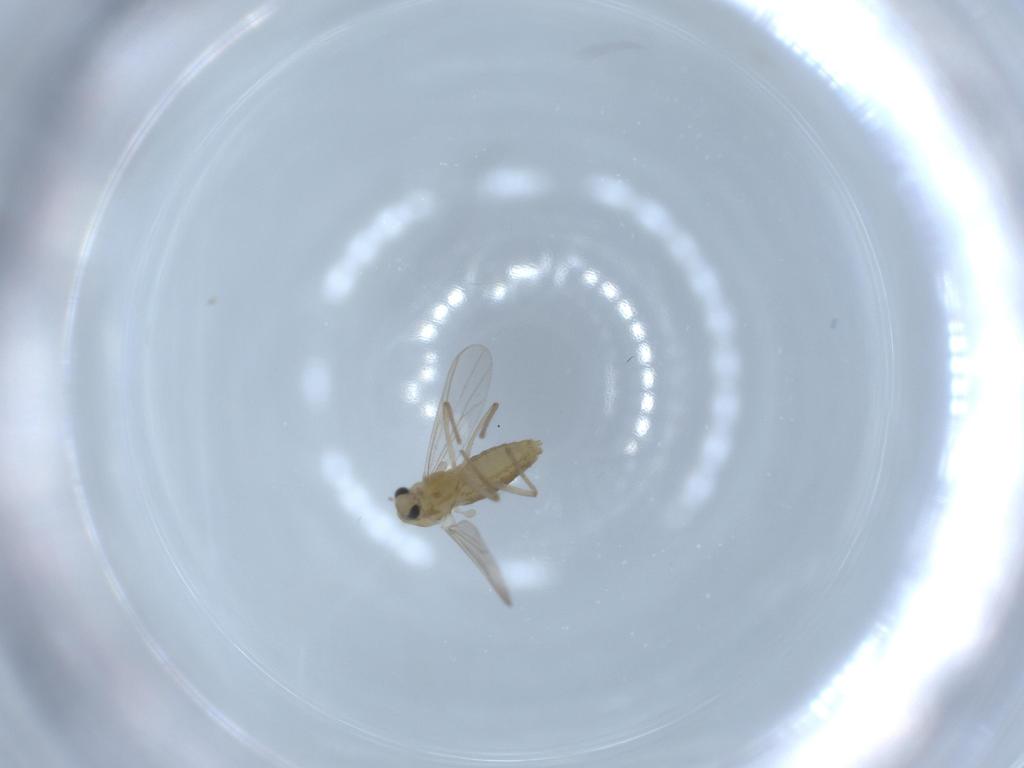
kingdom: Animalia
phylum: Arthropoda
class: Insecta
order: Diptera
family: Chironomidae
